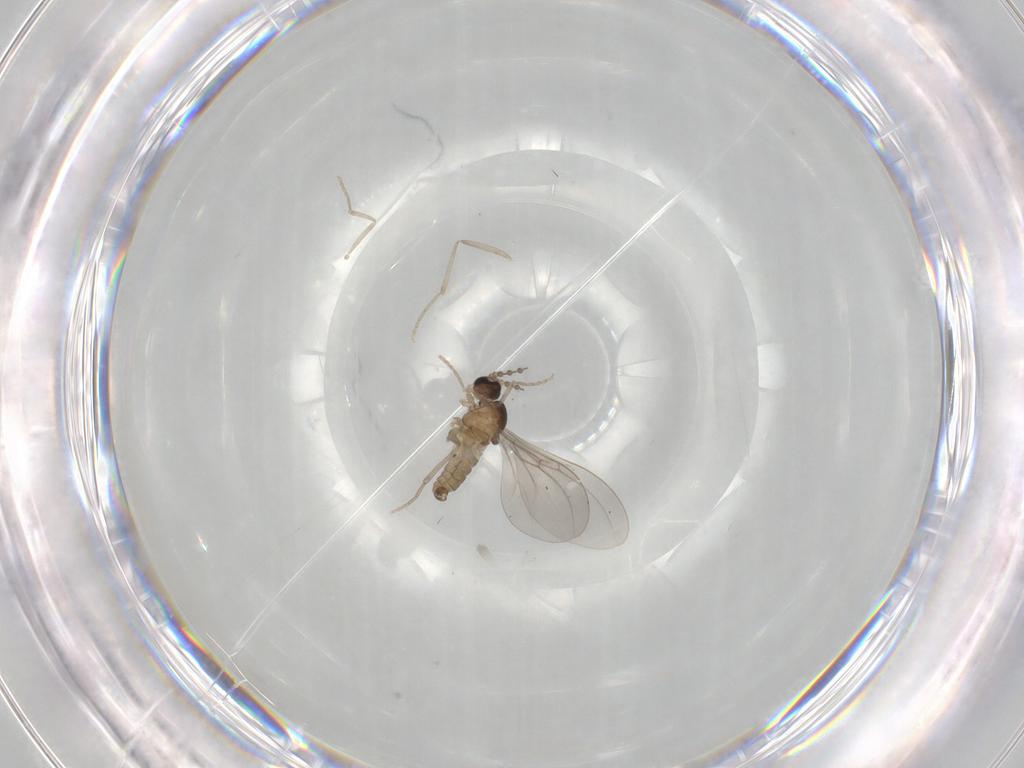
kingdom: Animalia
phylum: Arthropoda
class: Insecta
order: Diptera
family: Cecidomyiidae
